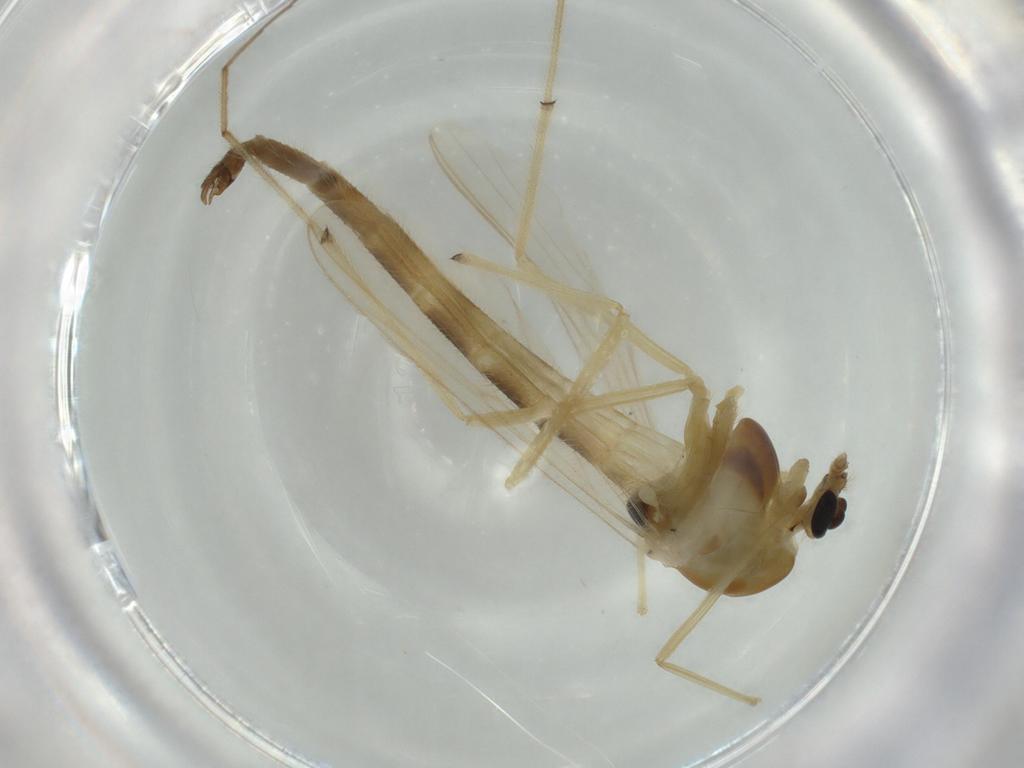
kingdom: Animalia
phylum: Arthropoda
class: Insecta
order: Diptera
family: Chironomidae
